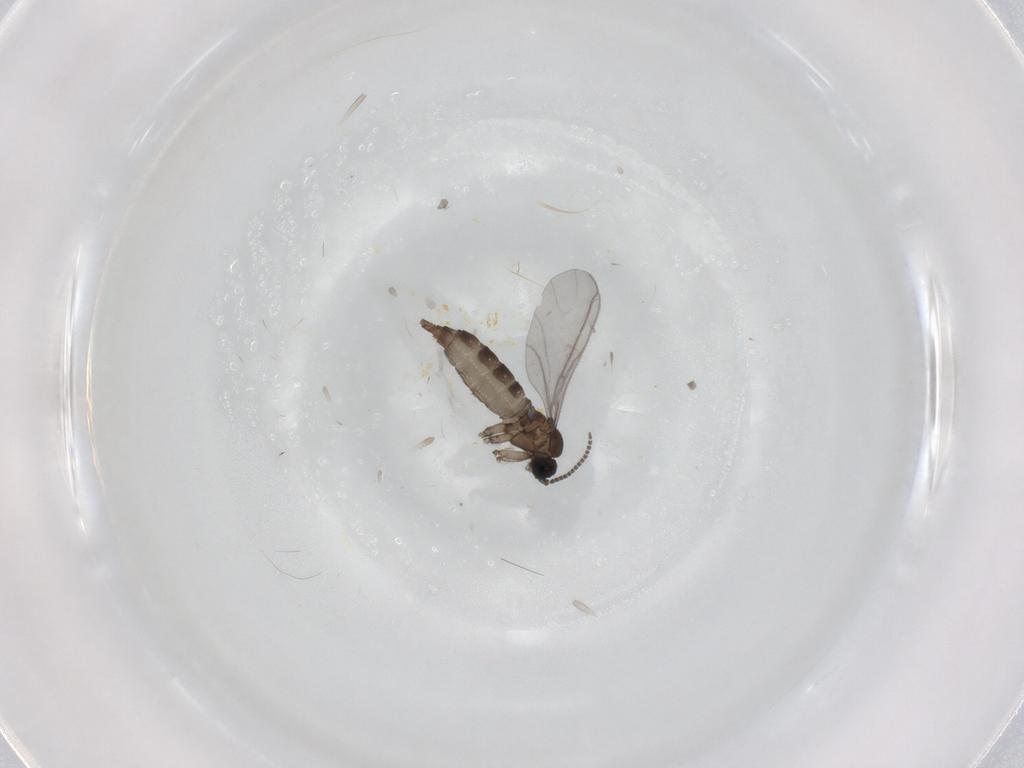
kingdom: Animalia
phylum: Arthropoda
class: Insecta
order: Diptera
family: Sciaridae
